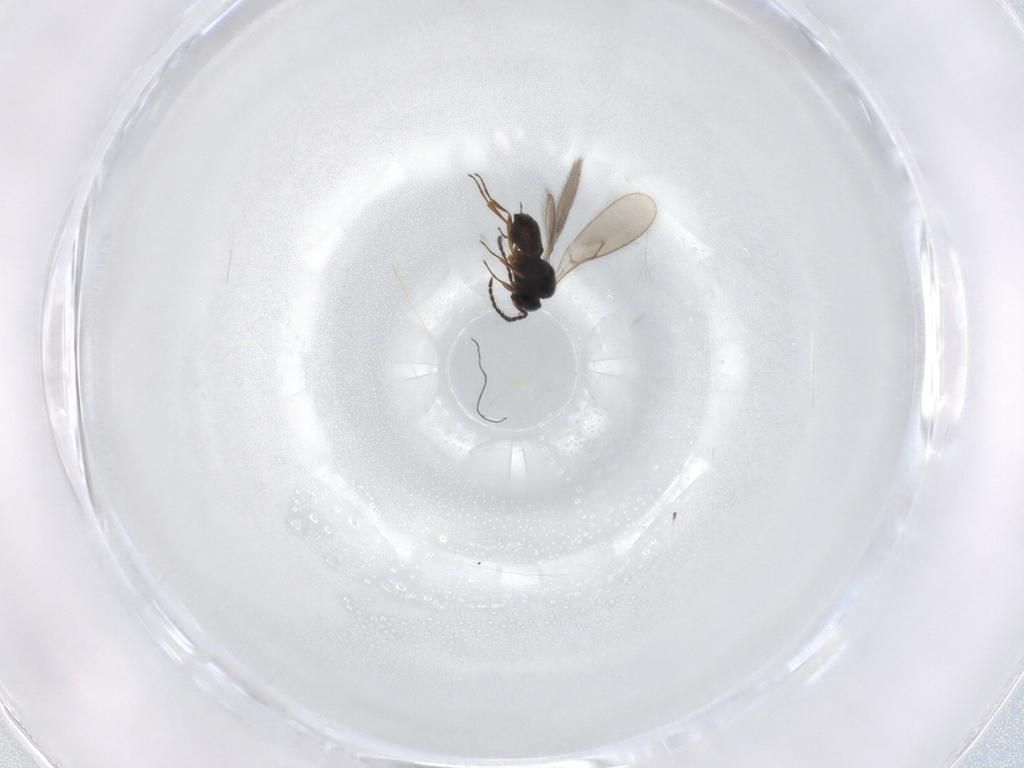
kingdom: Animalia
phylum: Arthropoda
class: Insecta
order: Hymenoptera
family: Scelionidae
